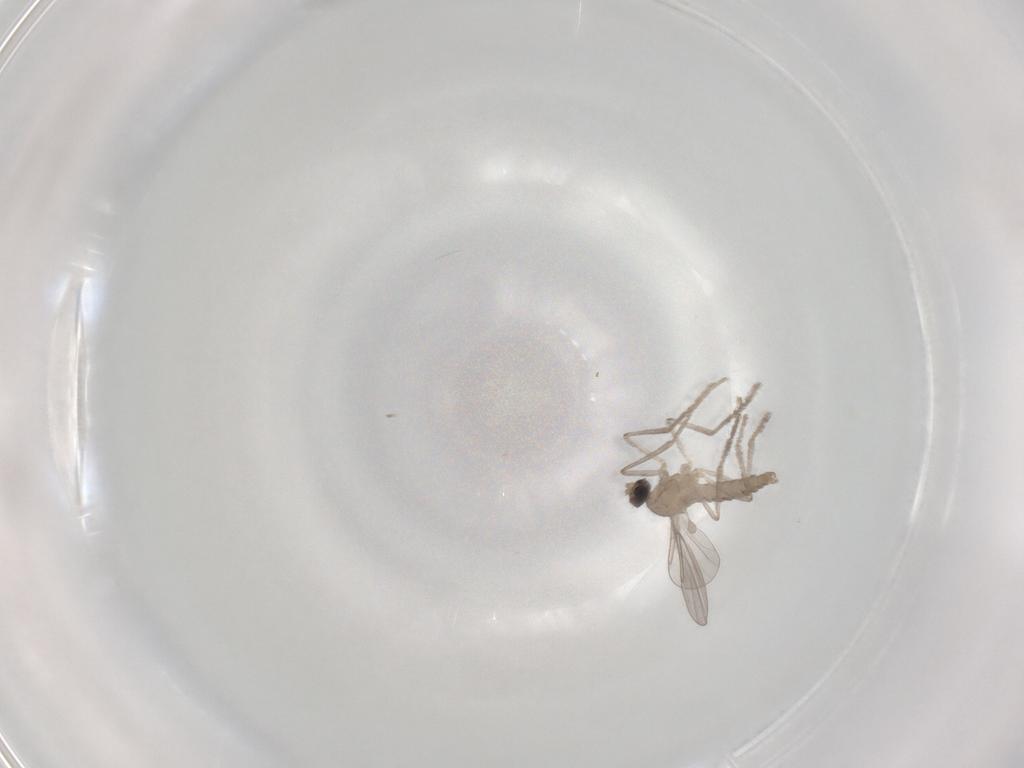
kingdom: Animalia
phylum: Arthropoda
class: Insecta
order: Diptera
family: Cecidomyiidae
